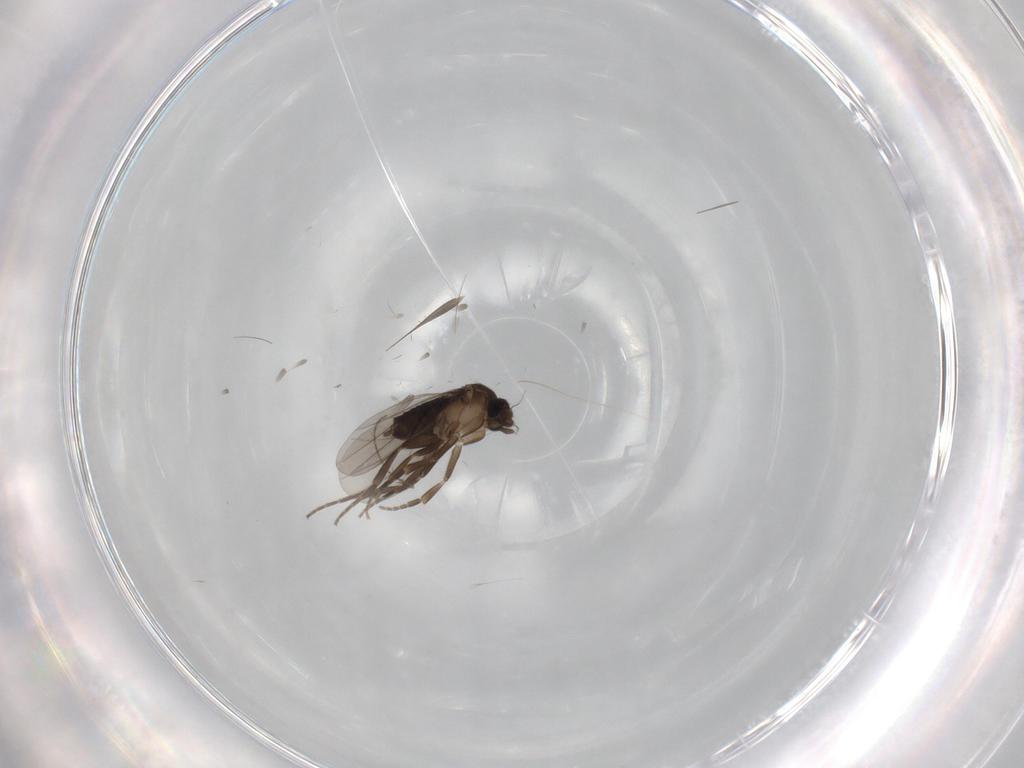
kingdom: Animalia
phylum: Arthropoda
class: Insecta
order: Diptera
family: Phoridae
